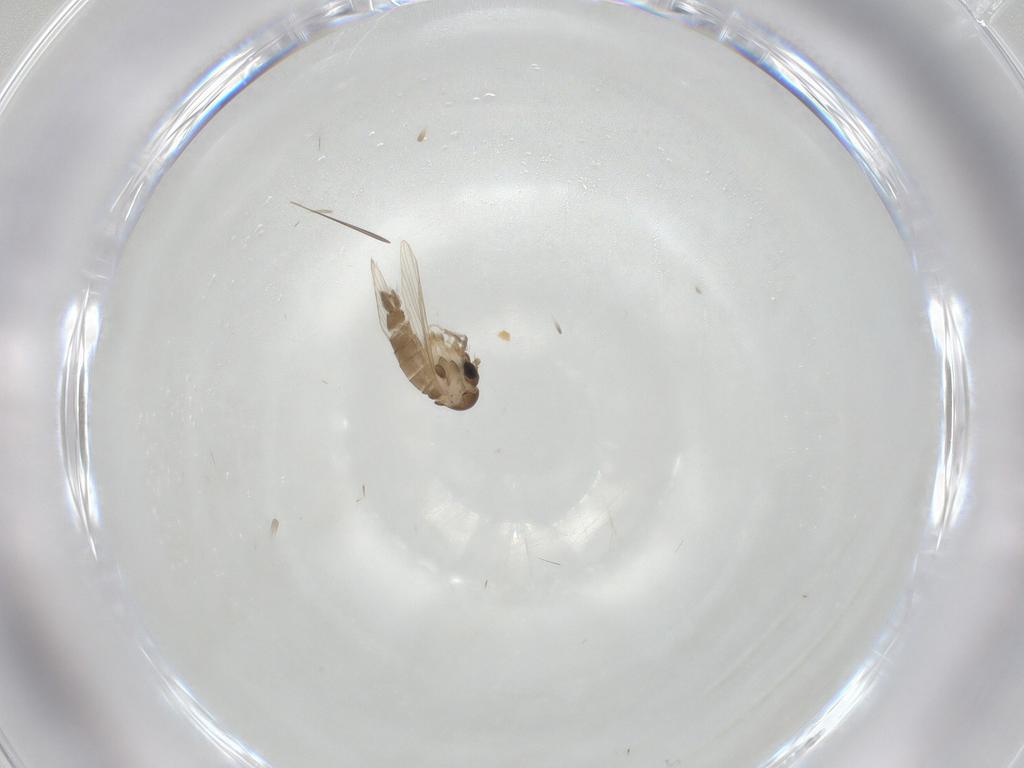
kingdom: Animalia
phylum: Arthropoda
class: Insecta
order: Diptera
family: Psychodidae
